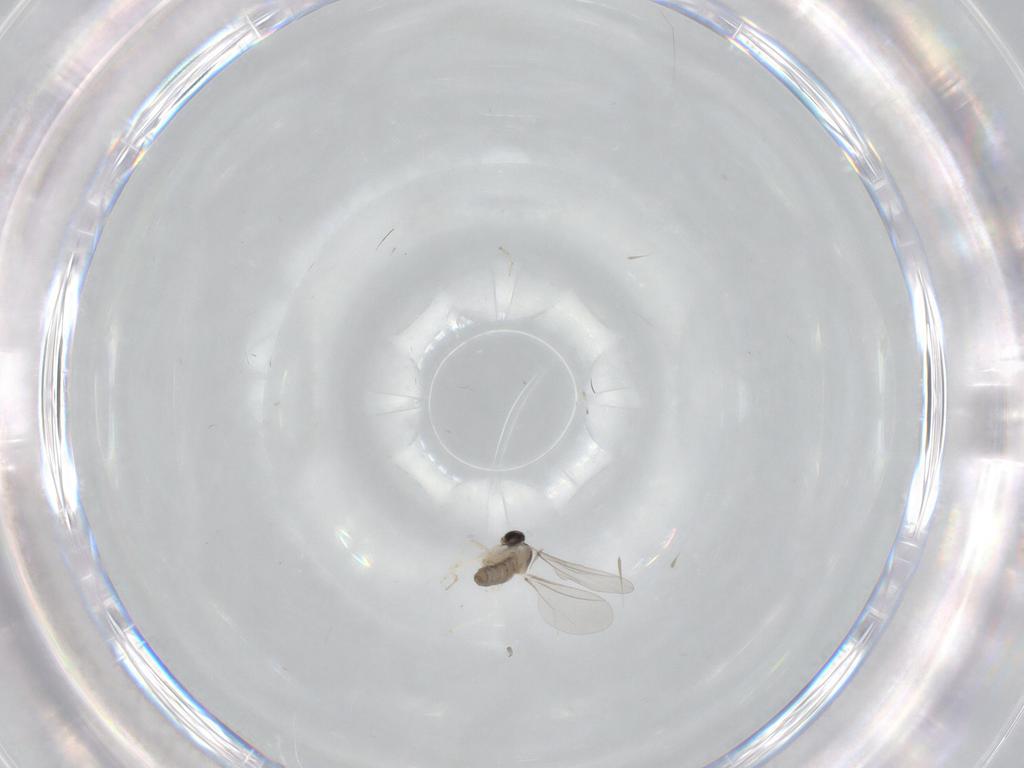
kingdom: Animalia
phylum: Arthropoda
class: Insecta
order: Diptera
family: Cecidomyiidae
